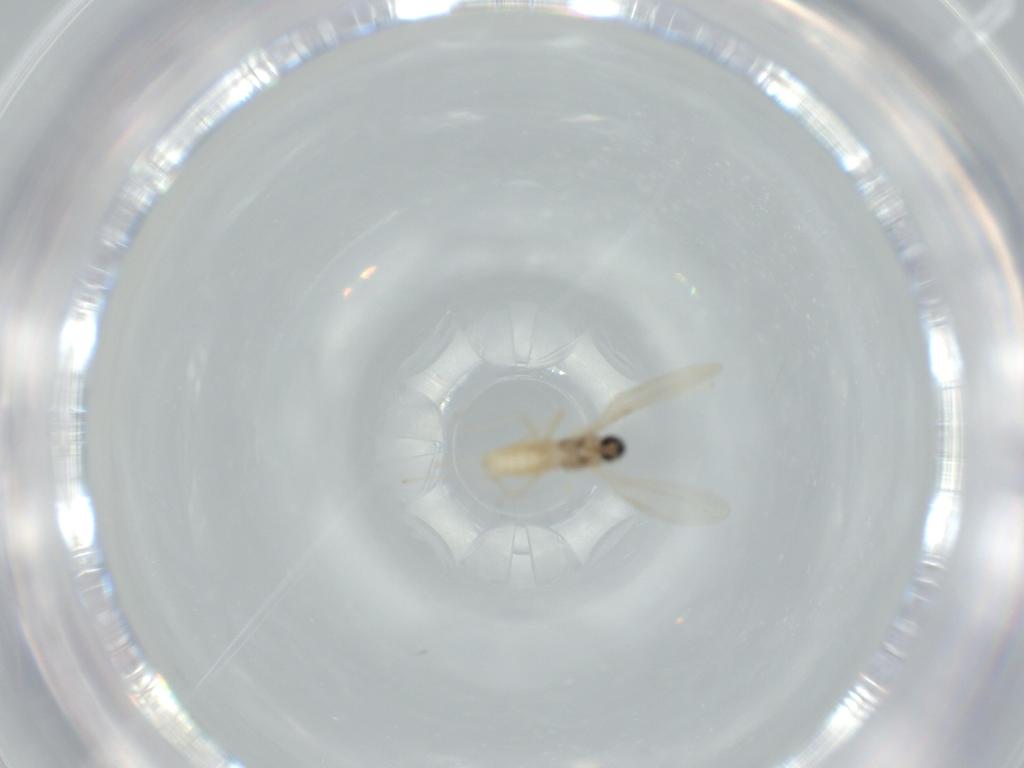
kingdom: Animalia
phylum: Arthropoda
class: Insecta
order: Diptera
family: Cecidomyiidae
